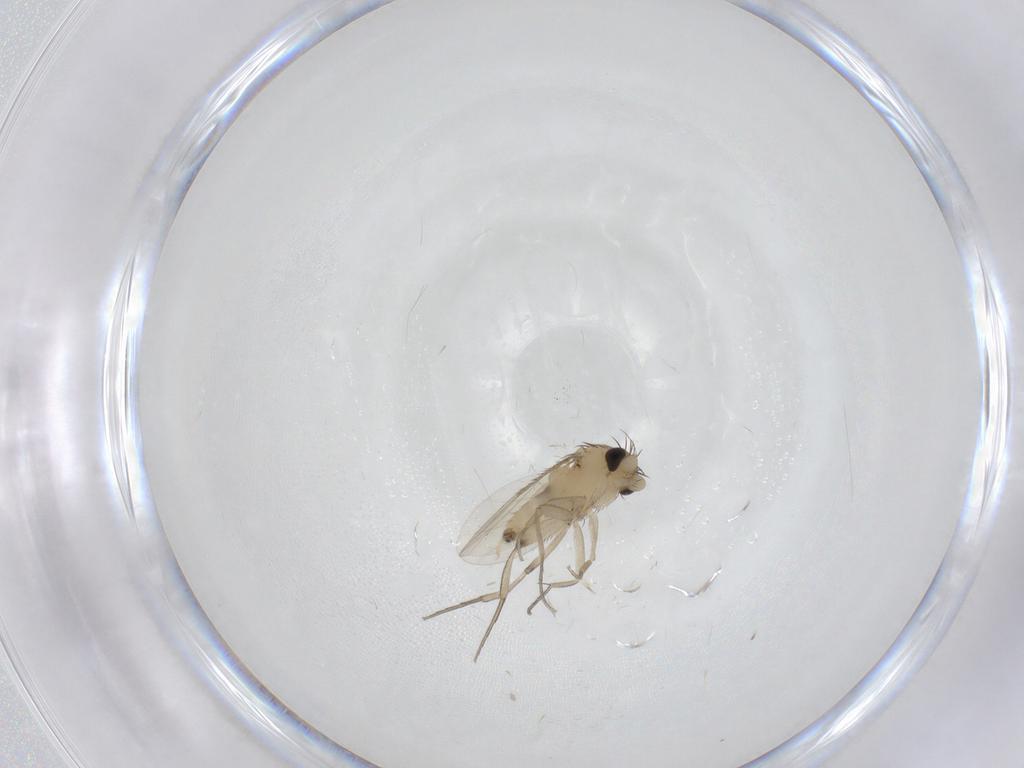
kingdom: Animalia
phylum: Arthropoda
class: Insecta
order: Diptera
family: Phoridae
